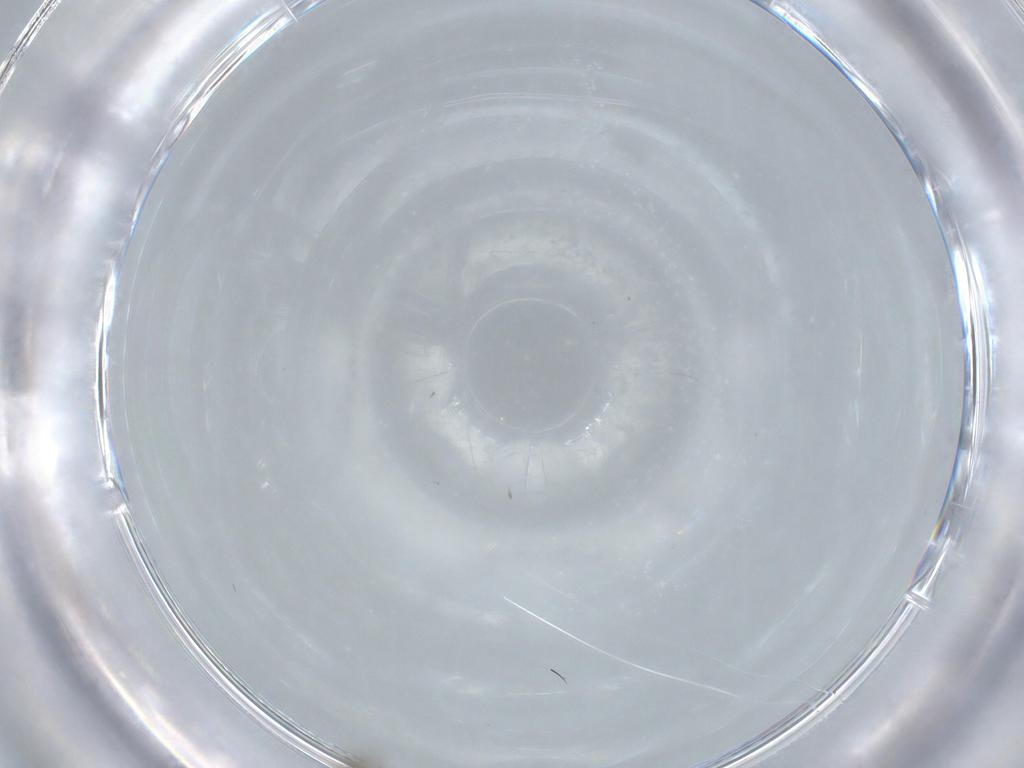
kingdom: Animalia
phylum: Arthropoda
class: Insecta
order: Diptera
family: Cecidomyiidae
